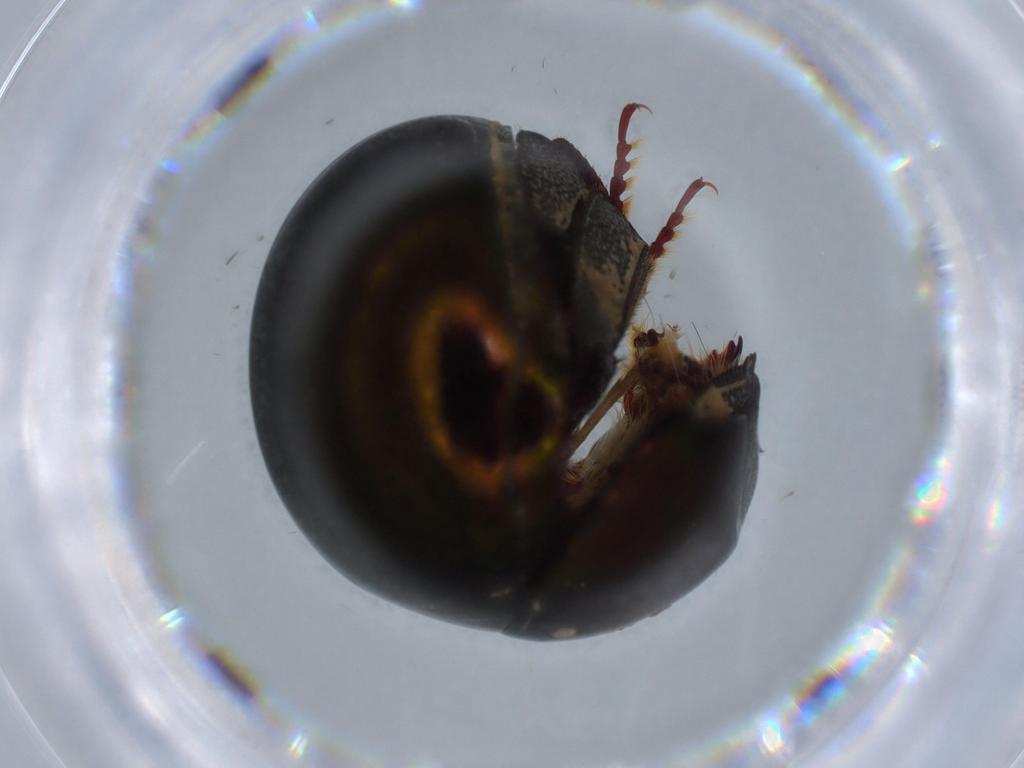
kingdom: Animalia
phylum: Arthropoda
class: Insecta
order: Coleoptera
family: Hybosoridae
